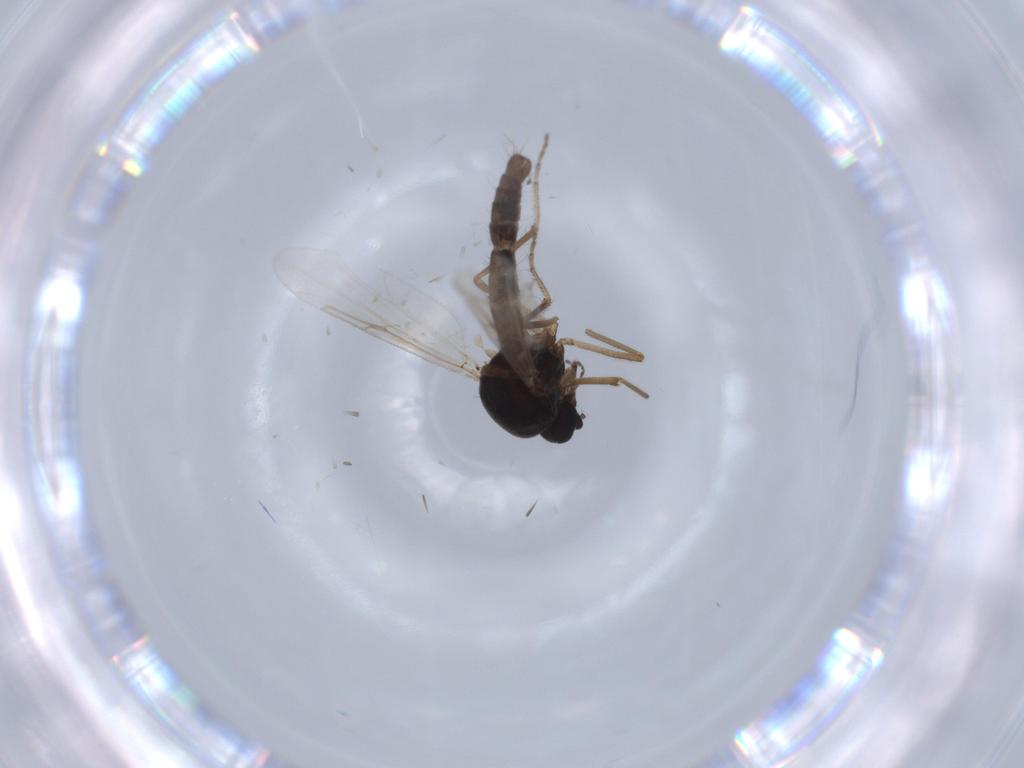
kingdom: Animalia
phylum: Arthropoda
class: Insecta
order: Diptera
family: Ceratopogonidae
